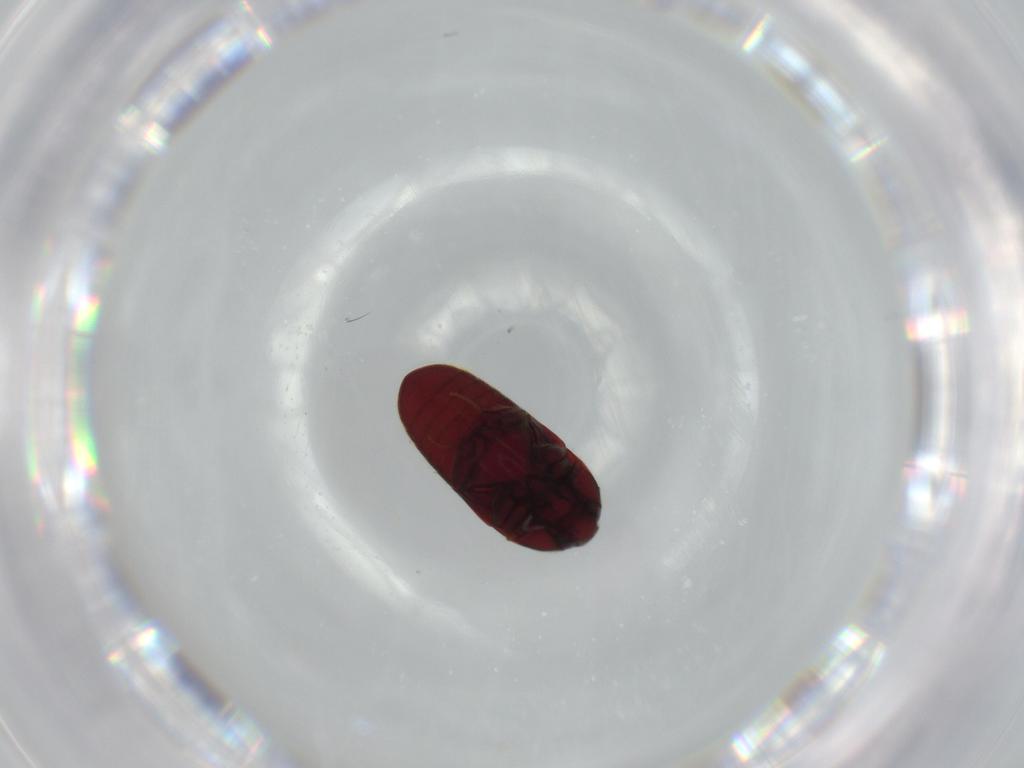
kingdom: Animalia
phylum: Arthropoda
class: Insecta
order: Coleoptera
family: Throscidae
